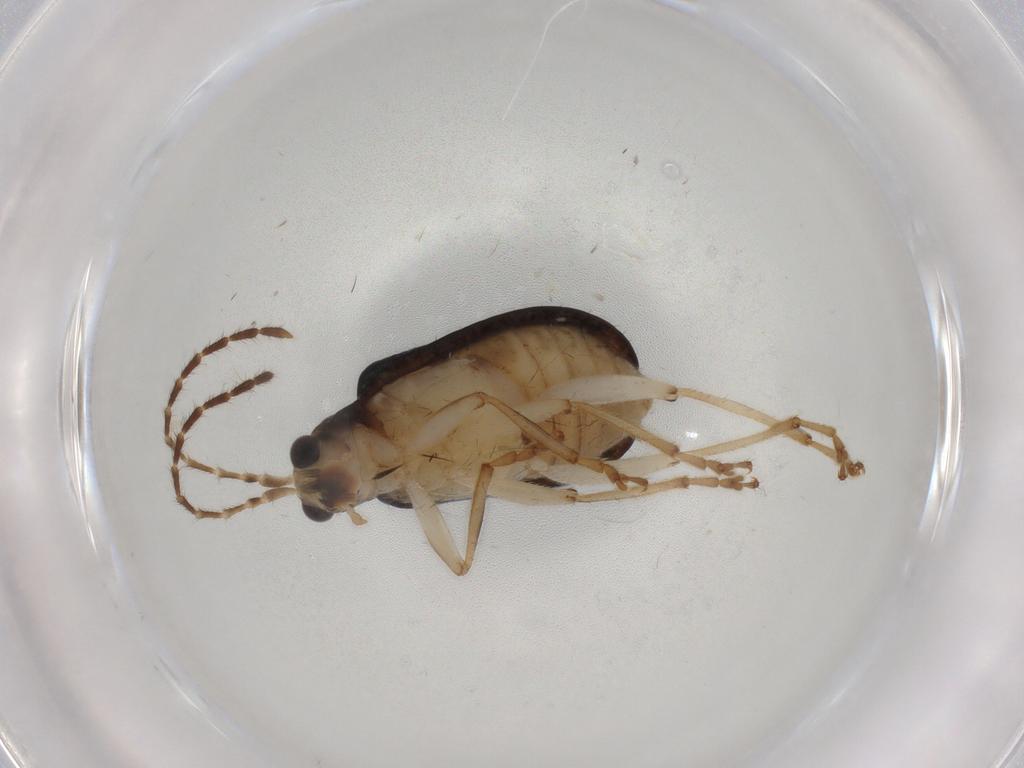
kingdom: Animalia
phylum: Arthropoda
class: Insecta
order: Coleoptera
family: Chrysomelidae
